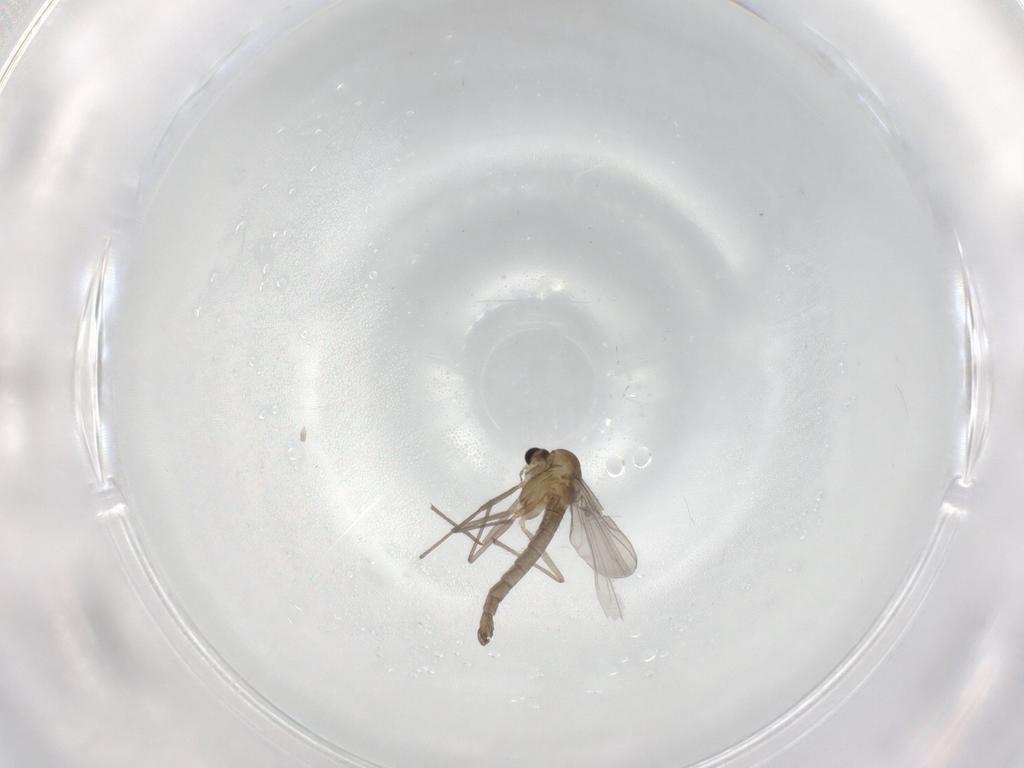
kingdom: Animalia
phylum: Arthropoda
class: Insecta
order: Diptera
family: Chironomidae
